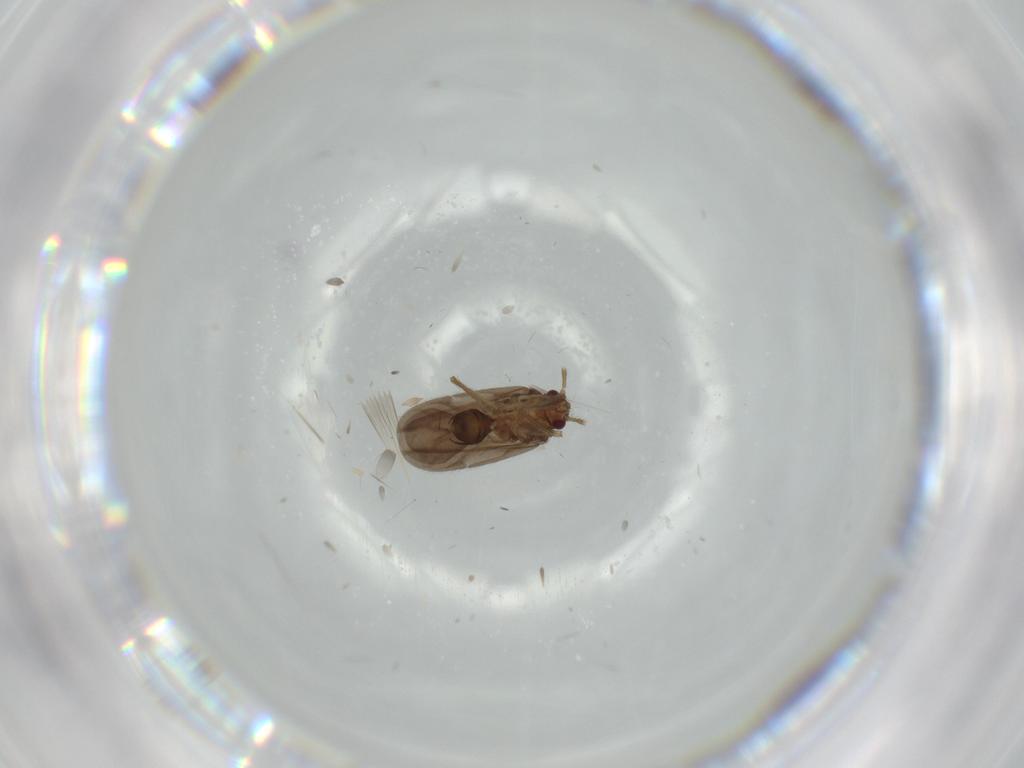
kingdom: Animalia
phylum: Arthropoda
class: Insecta
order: Hemiptera
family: Ceratocombidae
